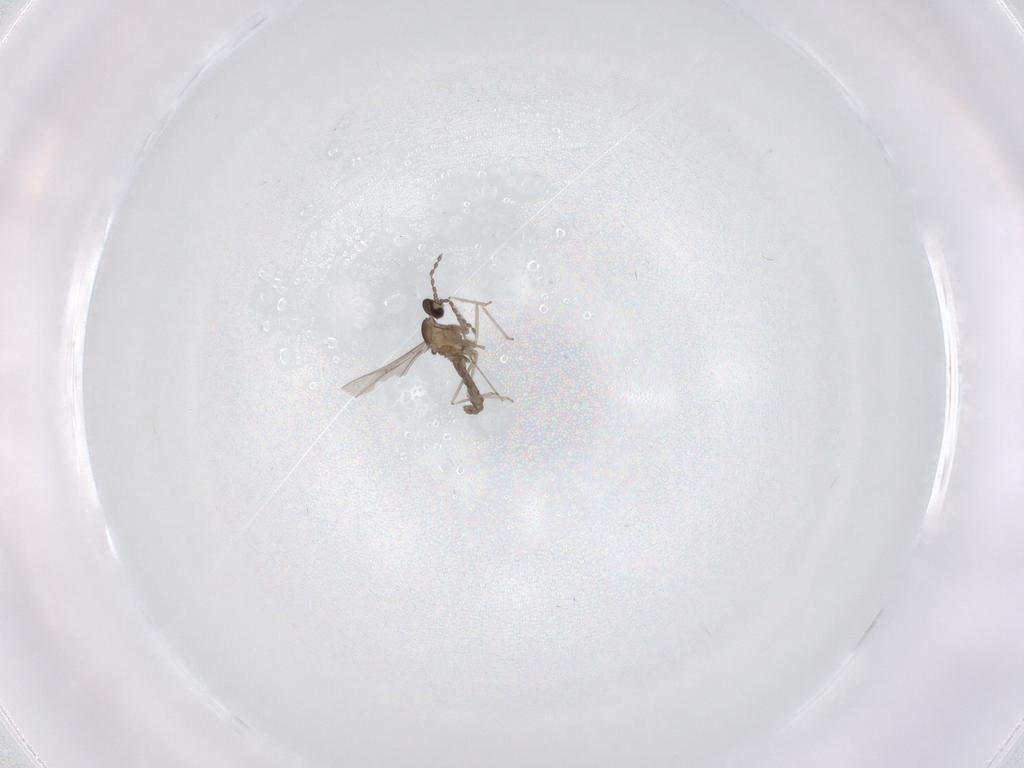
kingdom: Animalia
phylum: Arthropoda
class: Insecta
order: Diptera
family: Cecidomyiidae
